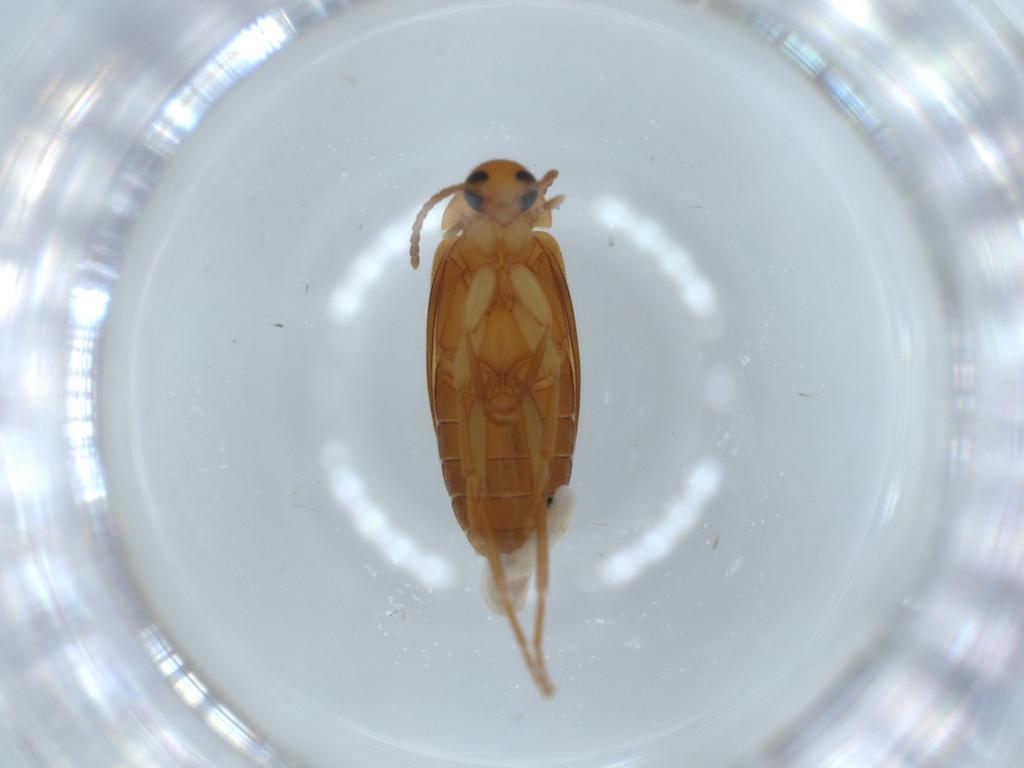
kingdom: Animalia
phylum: Arthropoda
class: Insecta
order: Coleoptera
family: Scraptiidae
